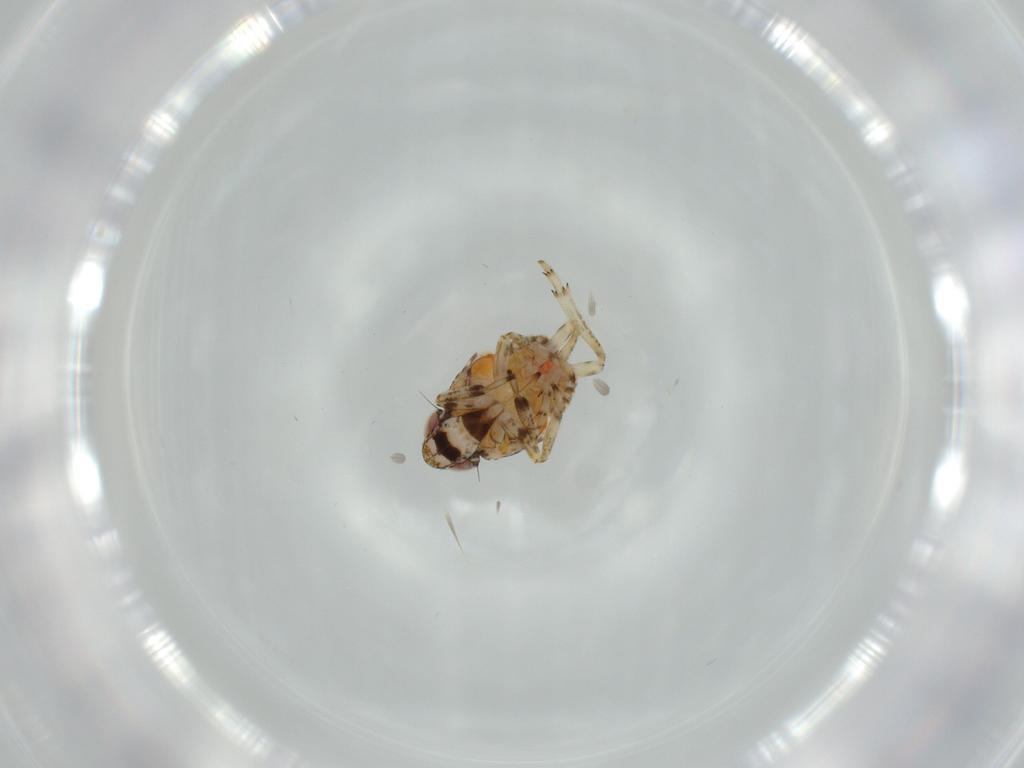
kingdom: Animalia
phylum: Arthropoda
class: Insecta
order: Hemiptera
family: Issidae
